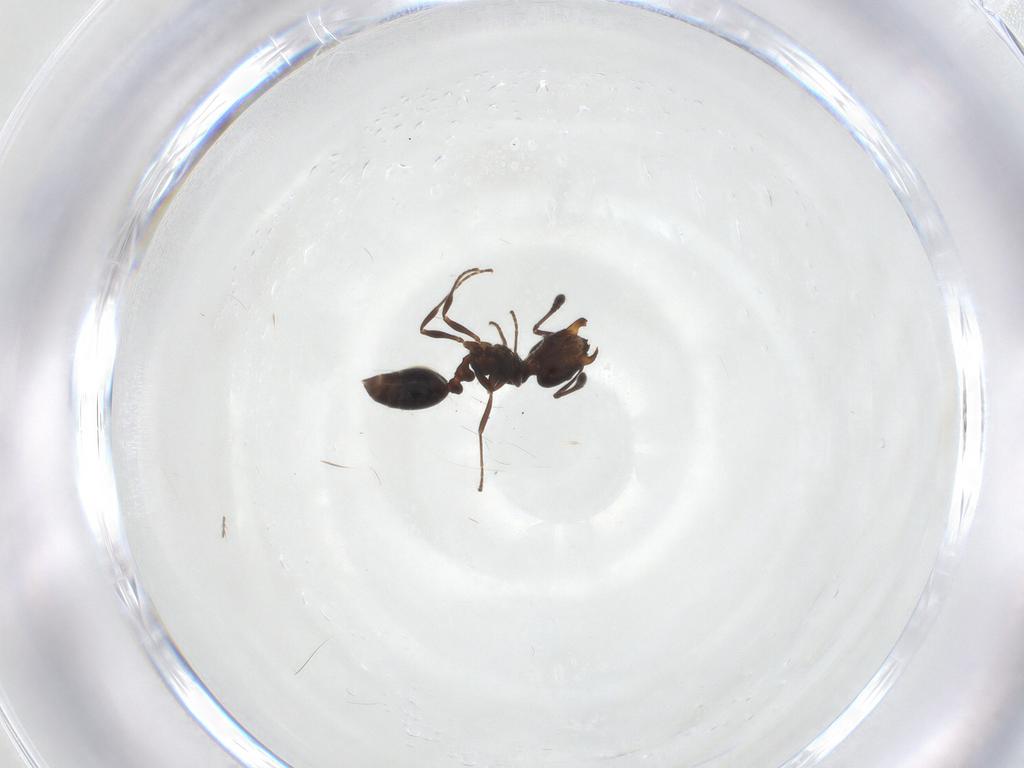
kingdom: Animalia
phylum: Arthropoda
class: Insecta
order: Hymenoptera
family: Formicidae
